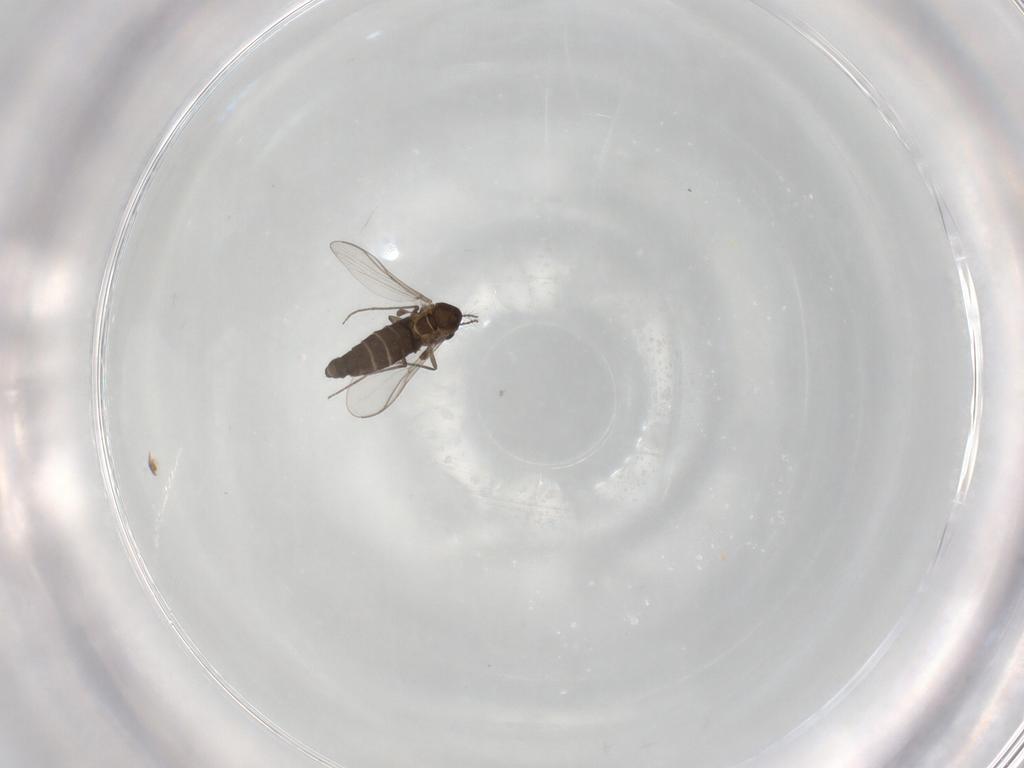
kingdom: Animalia
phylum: Arthropoda
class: Insecta
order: Diptera
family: Chironomidae
